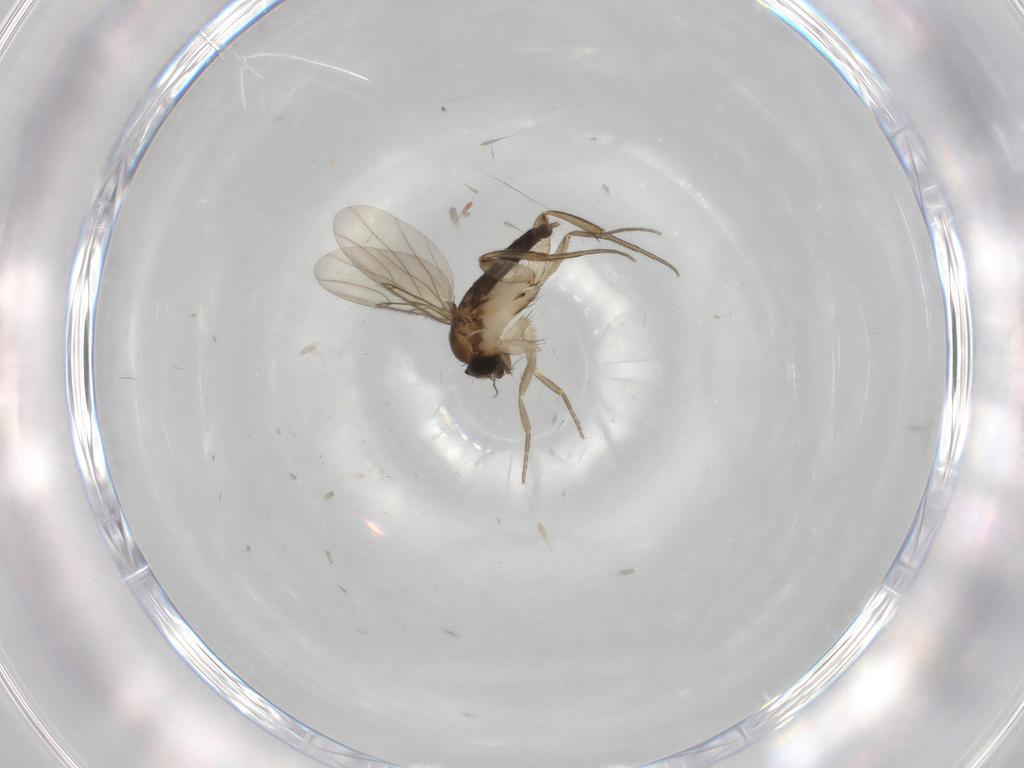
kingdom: Animalia
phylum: Arthropoda
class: Insecta
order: Diptera
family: Phoridae
